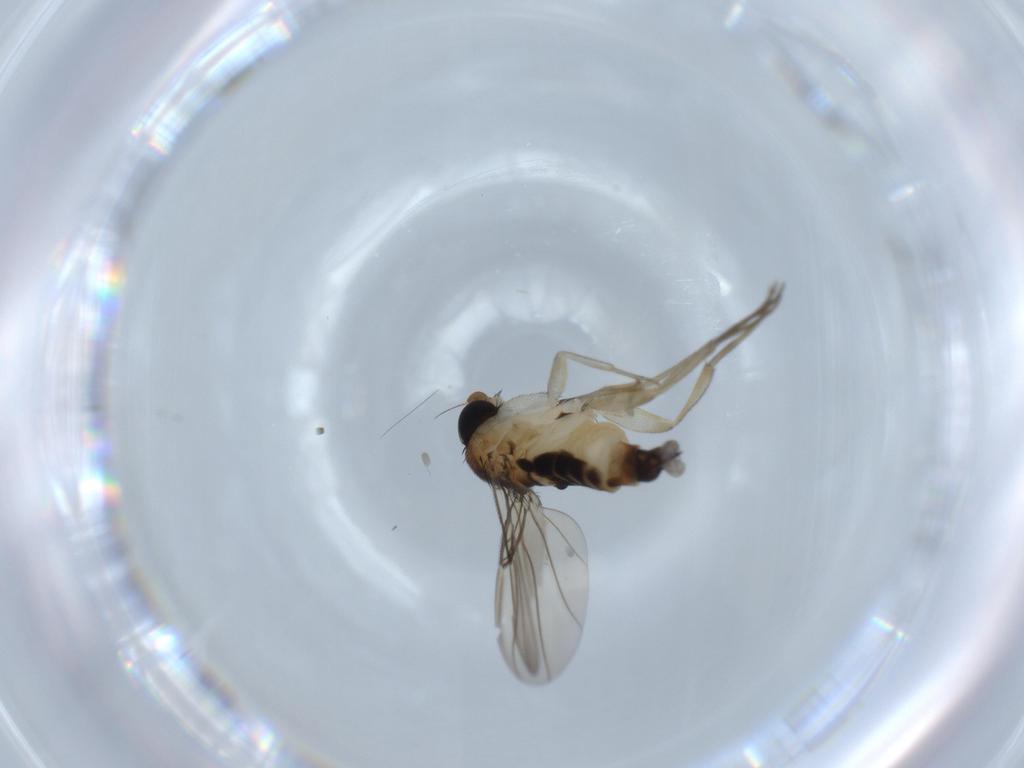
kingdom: Animalia
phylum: Arthropoda
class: Insecta
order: Diptera
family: Phoridae
